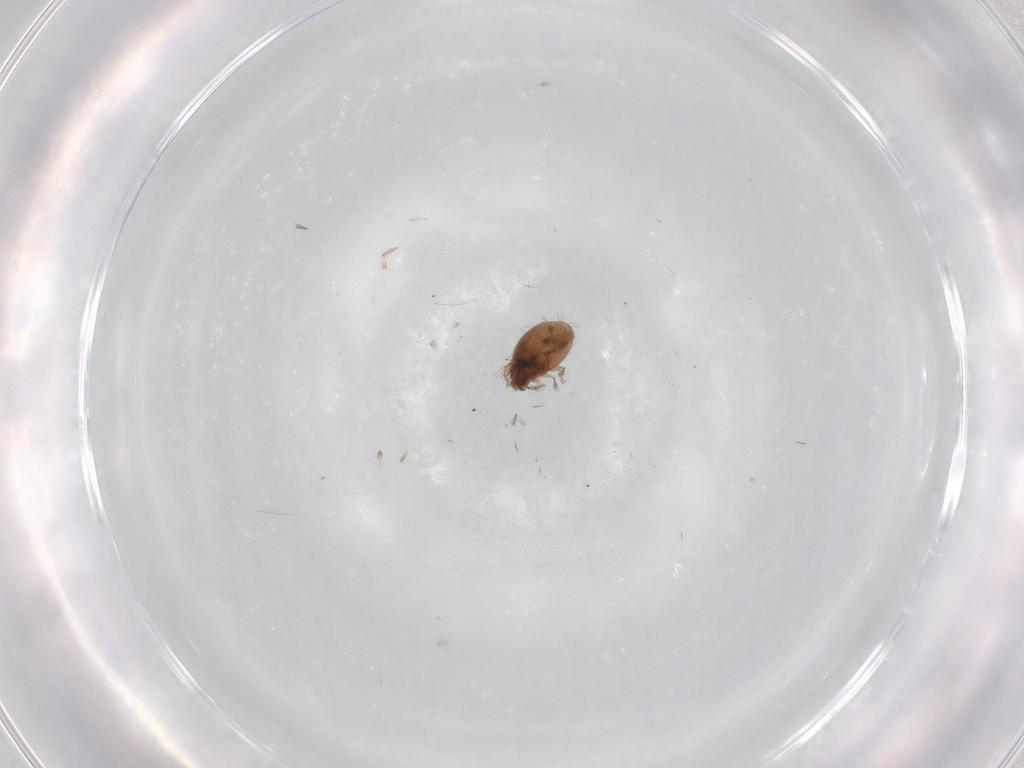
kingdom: Animalia
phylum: Arthropoda
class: Arachnida
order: Sarcoptiformes
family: Humerobatidae
